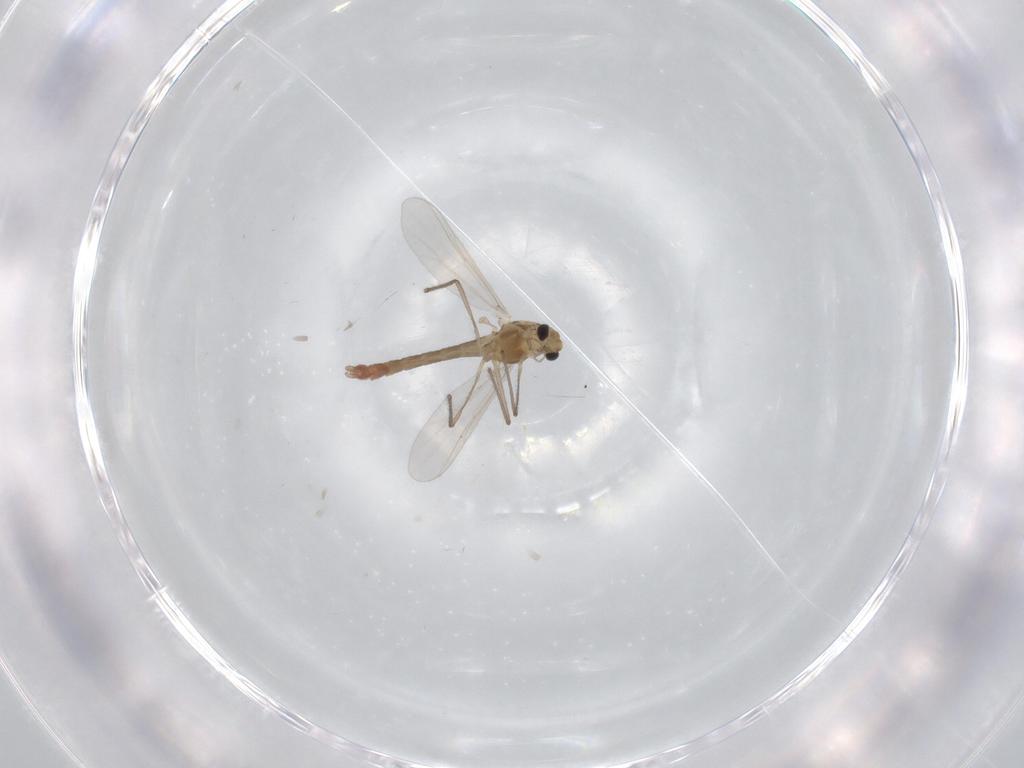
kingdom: Animalia
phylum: Arthropoda
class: Insecta
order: Diptera
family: Chironomidae
